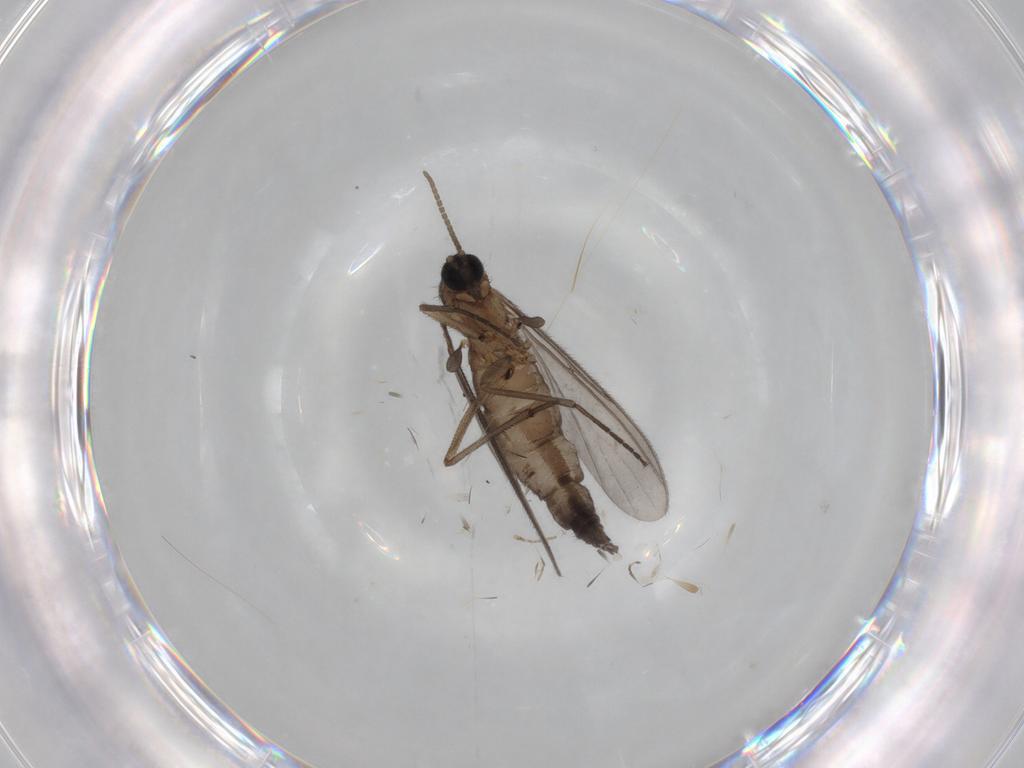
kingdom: Animalia
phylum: Arthropoda
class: Insecta
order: Diptera
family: Sciaridae
